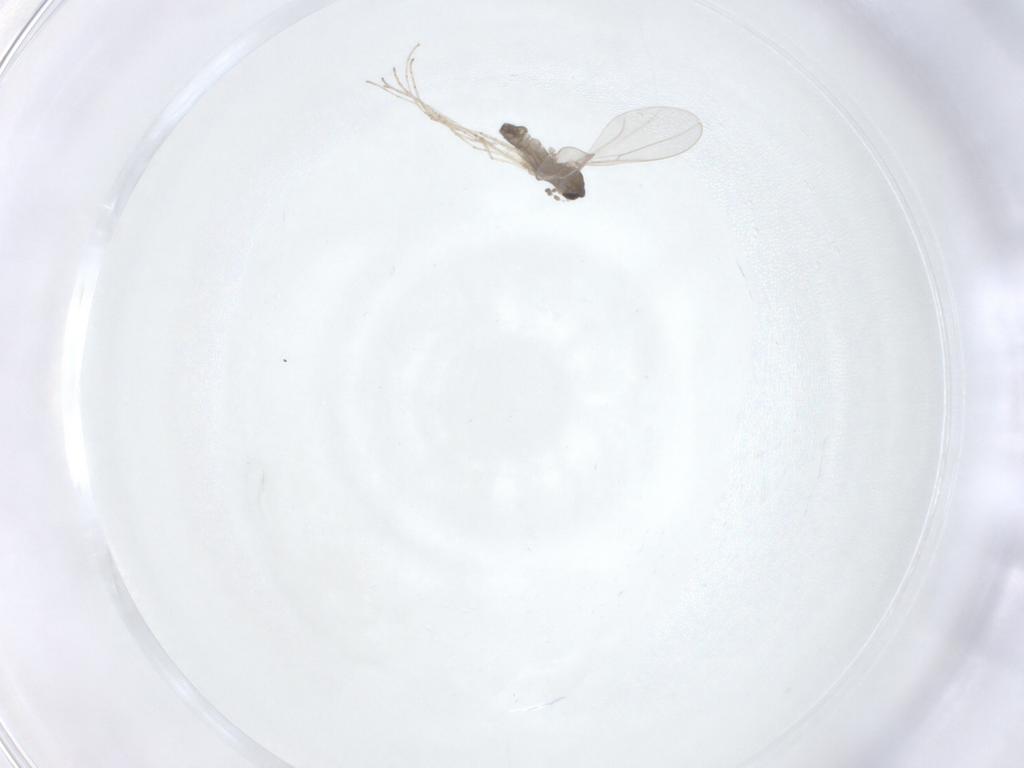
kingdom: Animalia
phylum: Arthropoda
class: Insecta
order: Diptera
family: Cecidomyiidae
